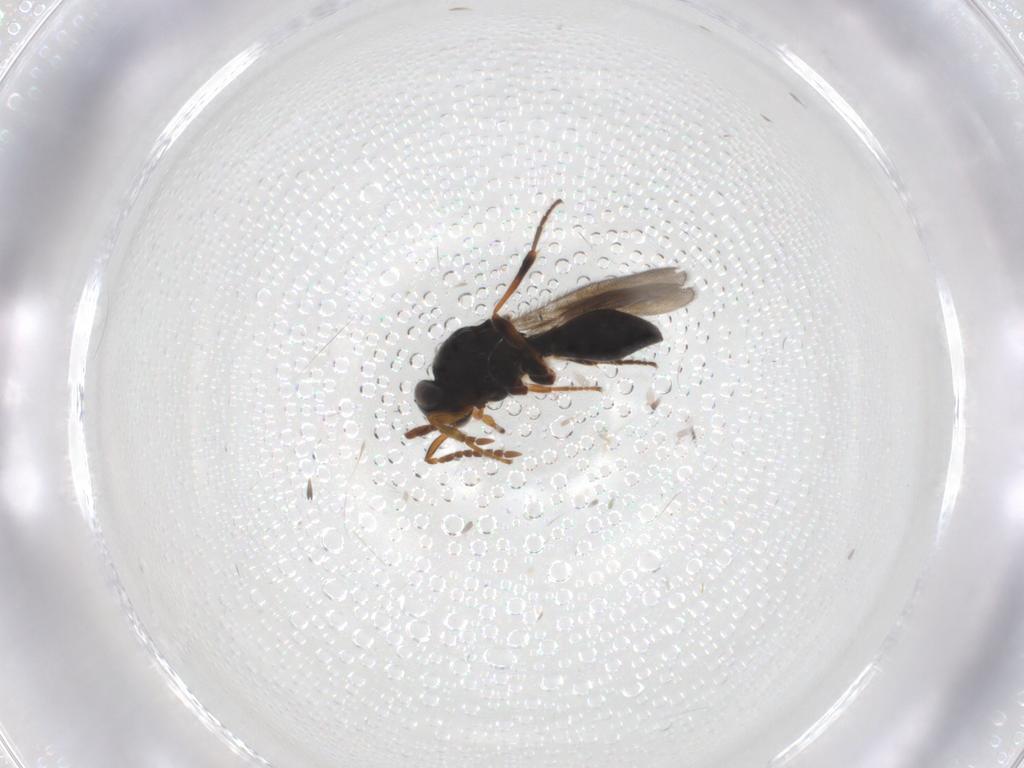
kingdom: Animalia
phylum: Arthropoda
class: Insecta
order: Hymenoptera
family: Platygastridae
